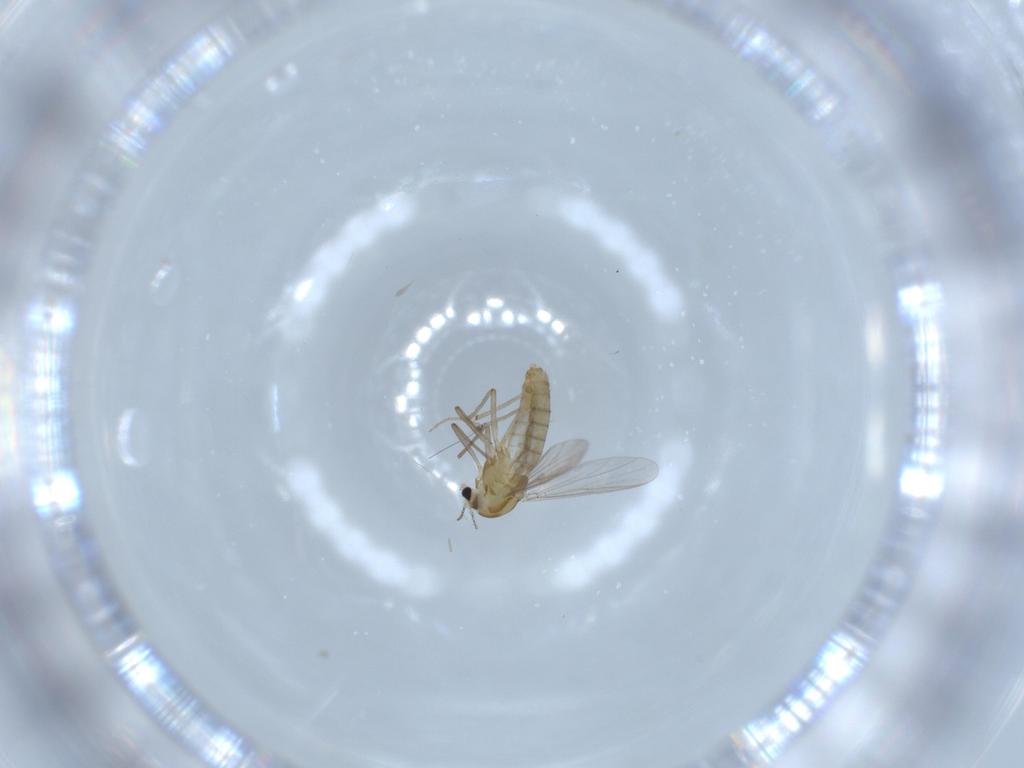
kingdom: Animalia
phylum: Arthropoda
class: Insecta
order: Diptera
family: Chironomidae
